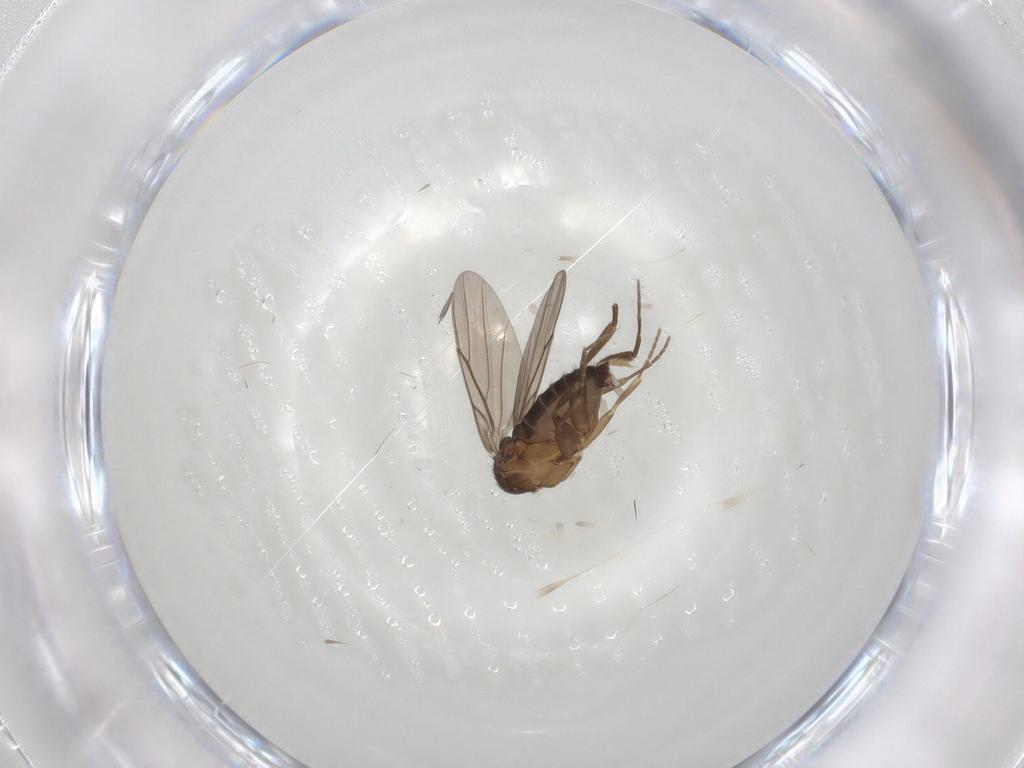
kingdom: Animalia
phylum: Arthropoda
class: Insecta
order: Diptera
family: Phoridae
